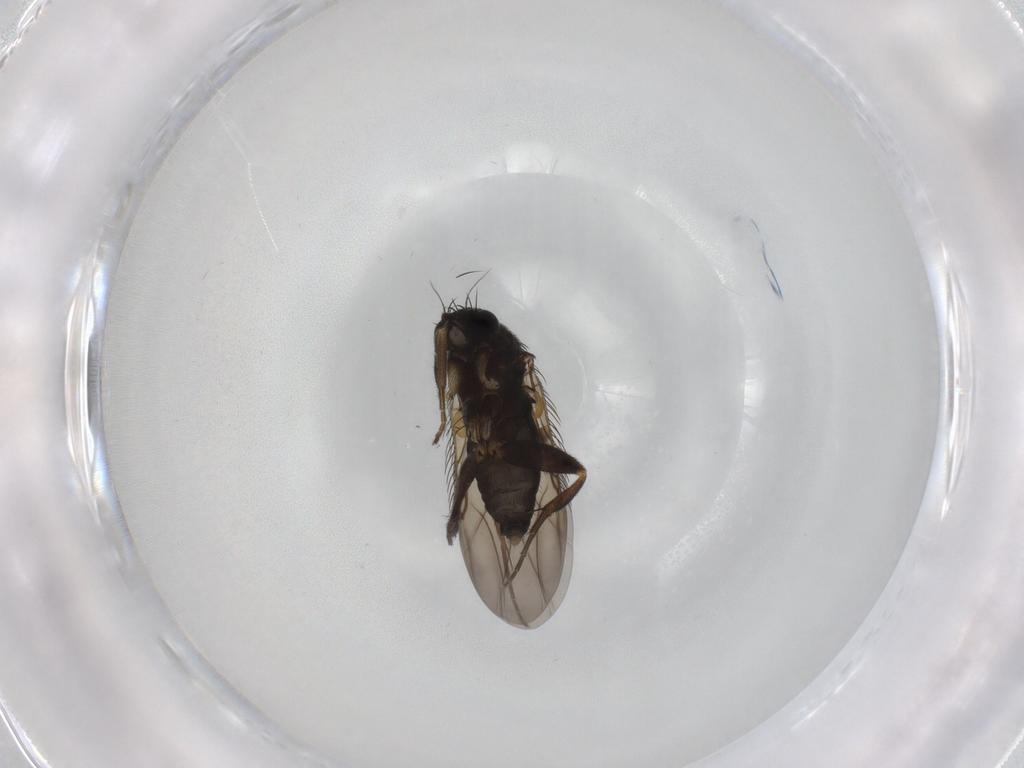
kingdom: Animalia
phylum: Arthropoda
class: Insecta
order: Diptera
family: Phoridae
